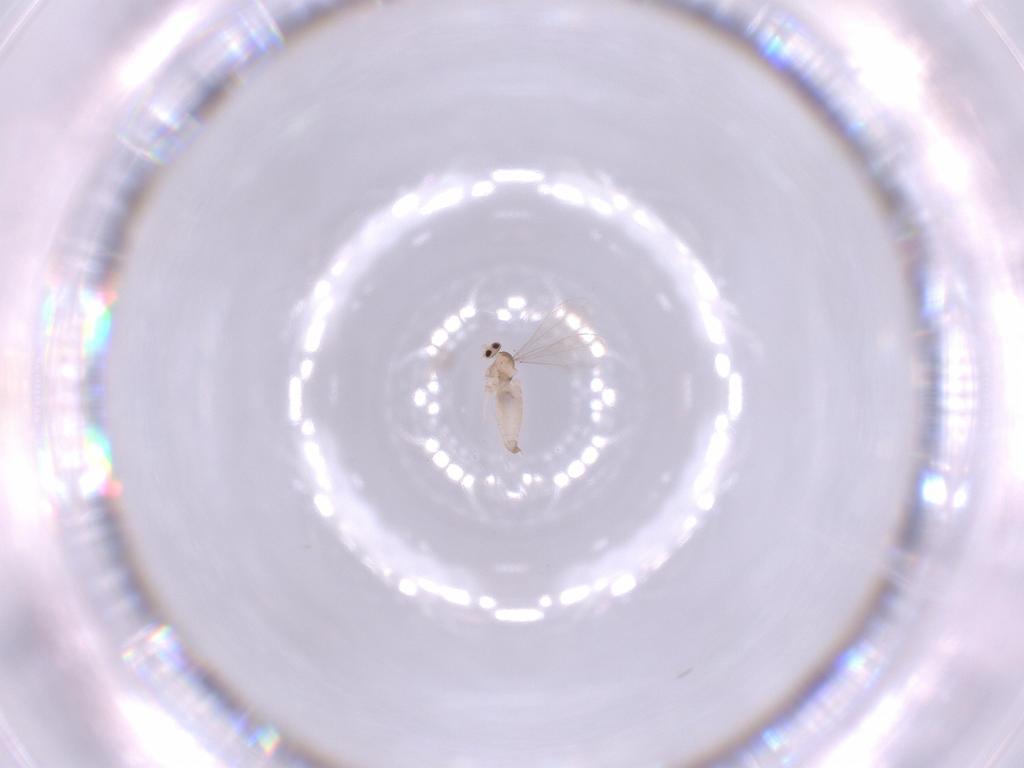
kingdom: Animalia
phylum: Arthropoda
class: Insecta
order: Diptera
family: Cecidomyiidae
